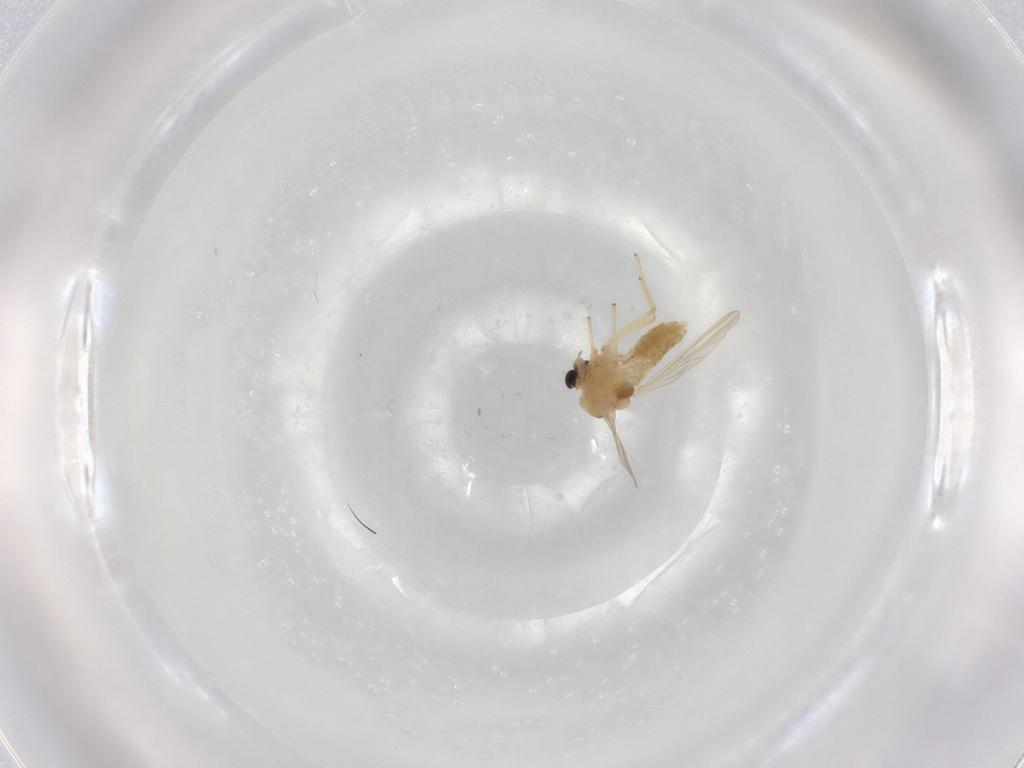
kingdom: Animalia
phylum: Arthropoda
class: Insecta
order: Diptera
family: Chironomidae
